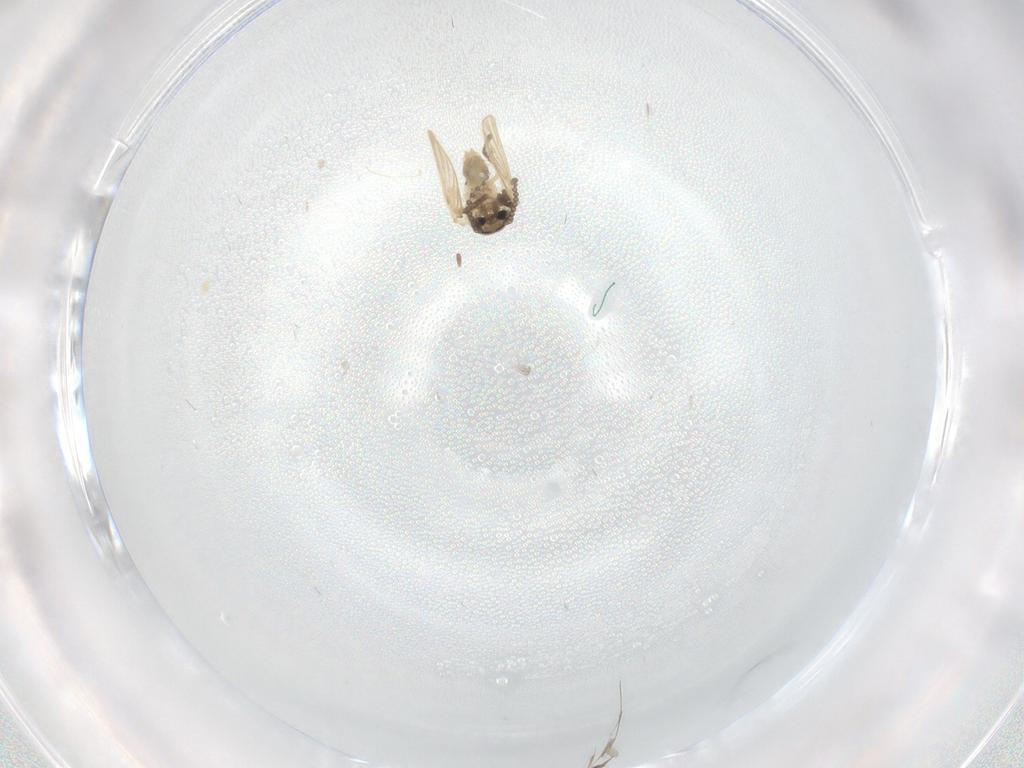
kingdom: Animalia
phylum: Arthropoda
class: Insecta
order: Diptera
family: Psychodidae
